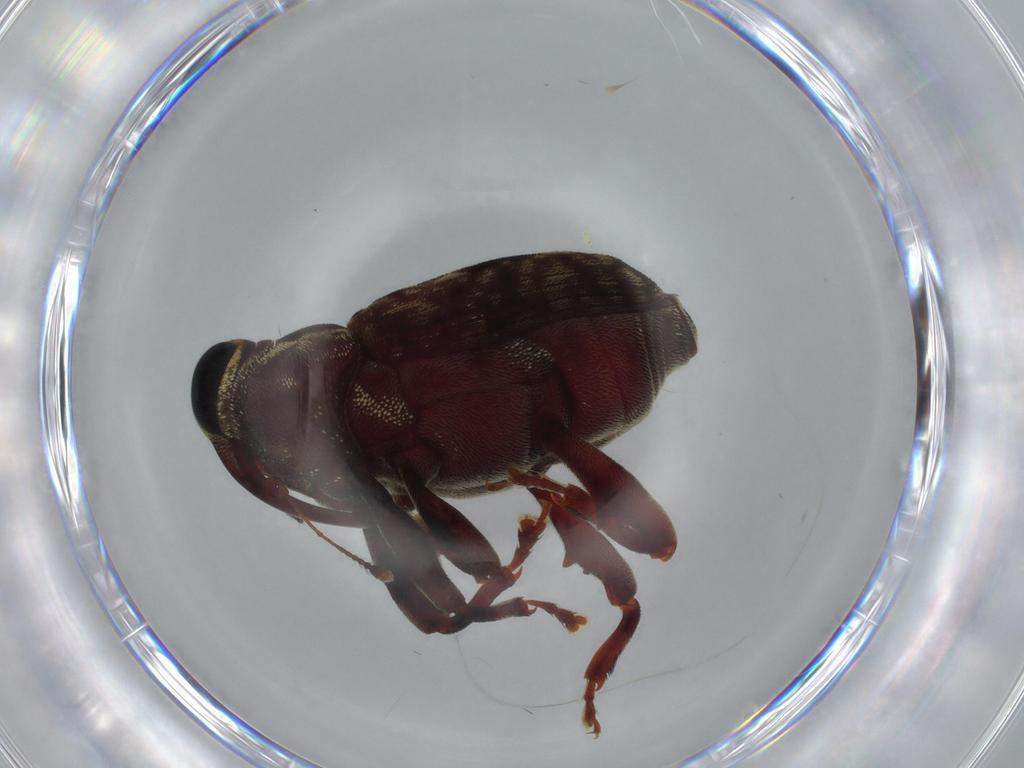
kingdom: Animalia
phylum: Arthropoda
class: Insecta
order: Coleoptera
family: Curculionidae
